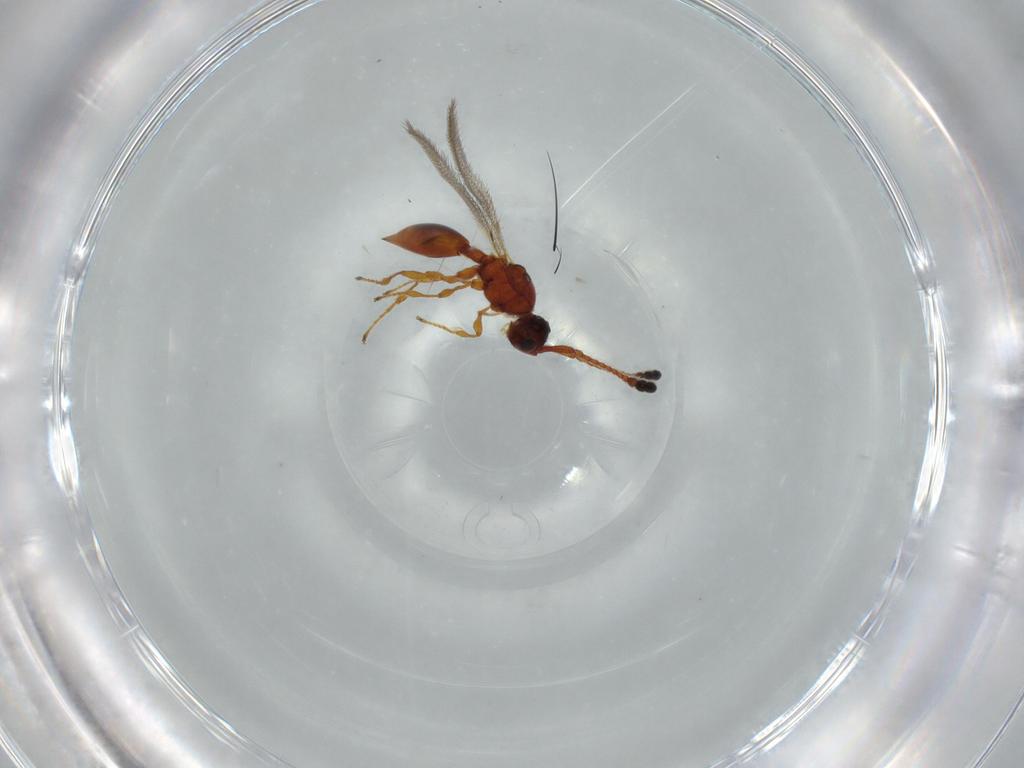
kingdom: Animalia
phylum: Arthropoda
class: Insecta
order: Hymenoptera
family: Diapriidae
